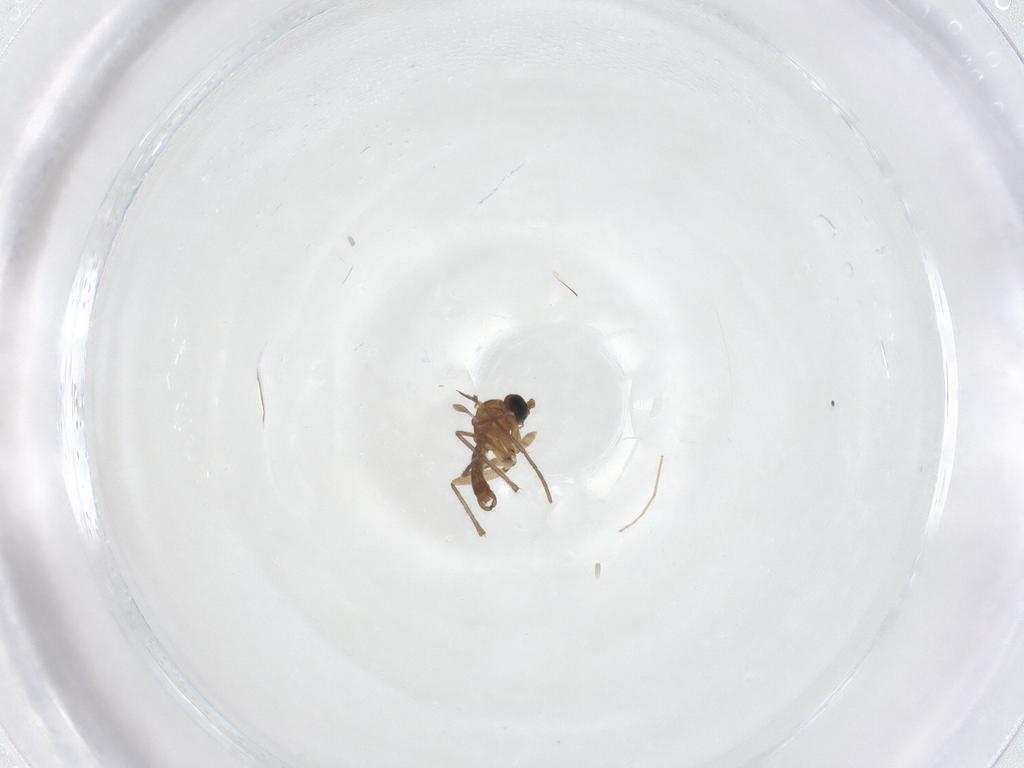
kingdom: Animalia
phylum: Arthropoda
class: Insecta
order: Diptera
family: Sciaridae
